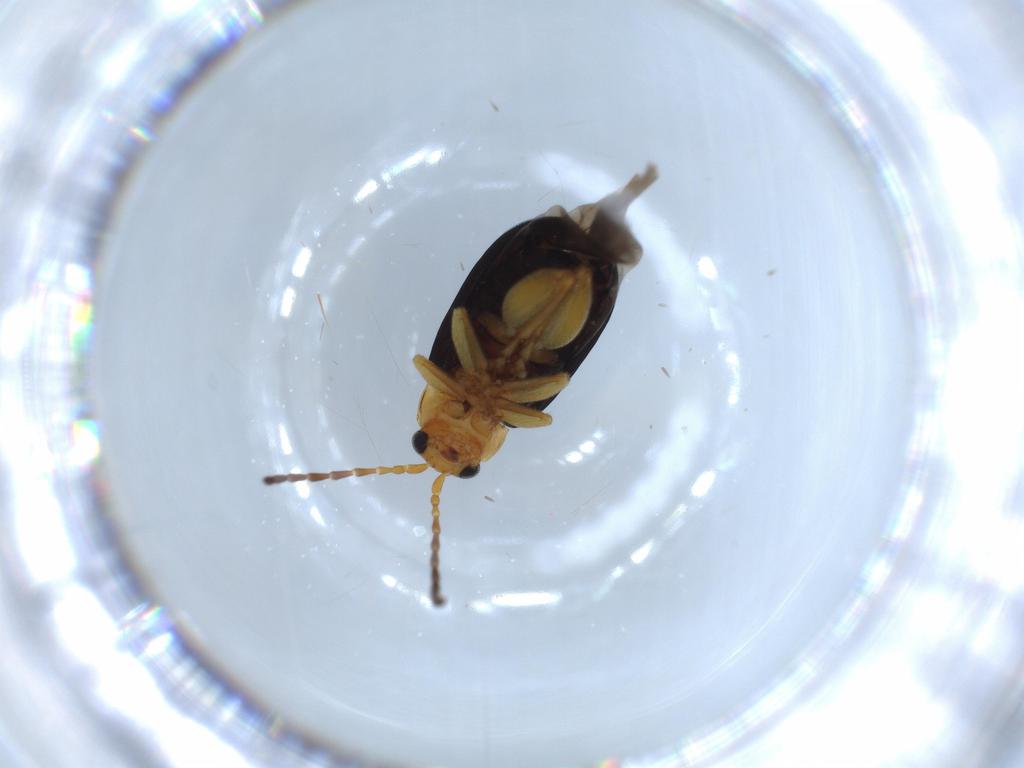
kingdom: Animalia
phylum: Arthropoda
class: Insecta
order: Coleoptera
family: Chrysomelidae
